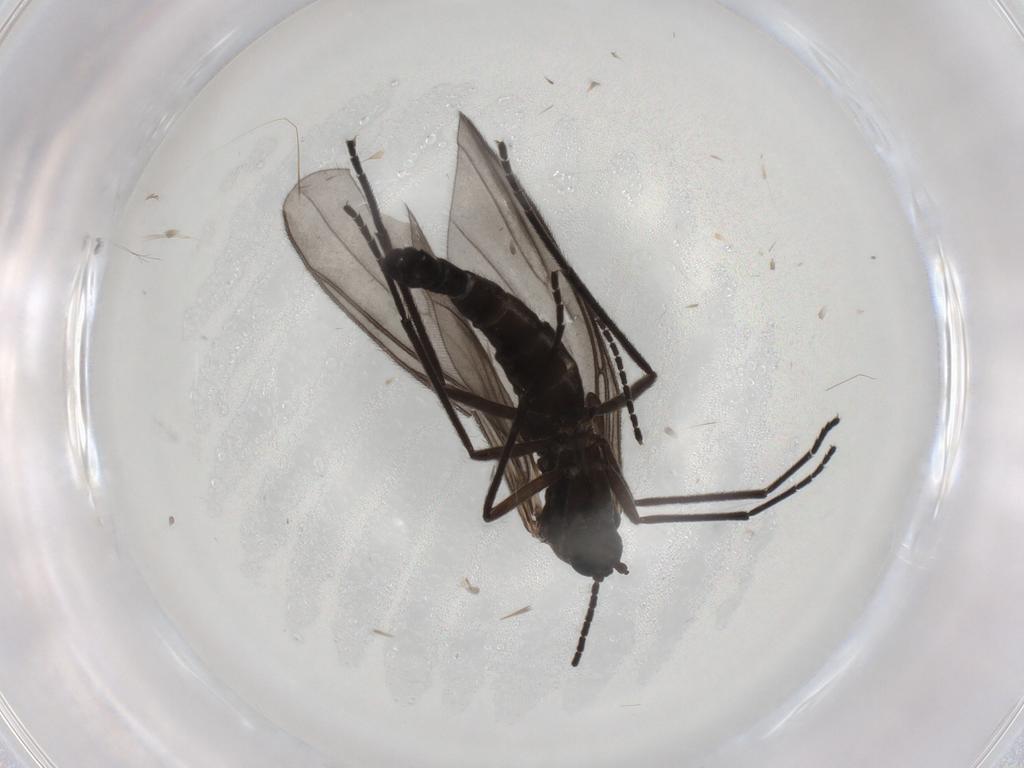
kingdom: Animalia
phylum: Arthropoda
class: Insecta
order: Diptera
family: Sciaridae
